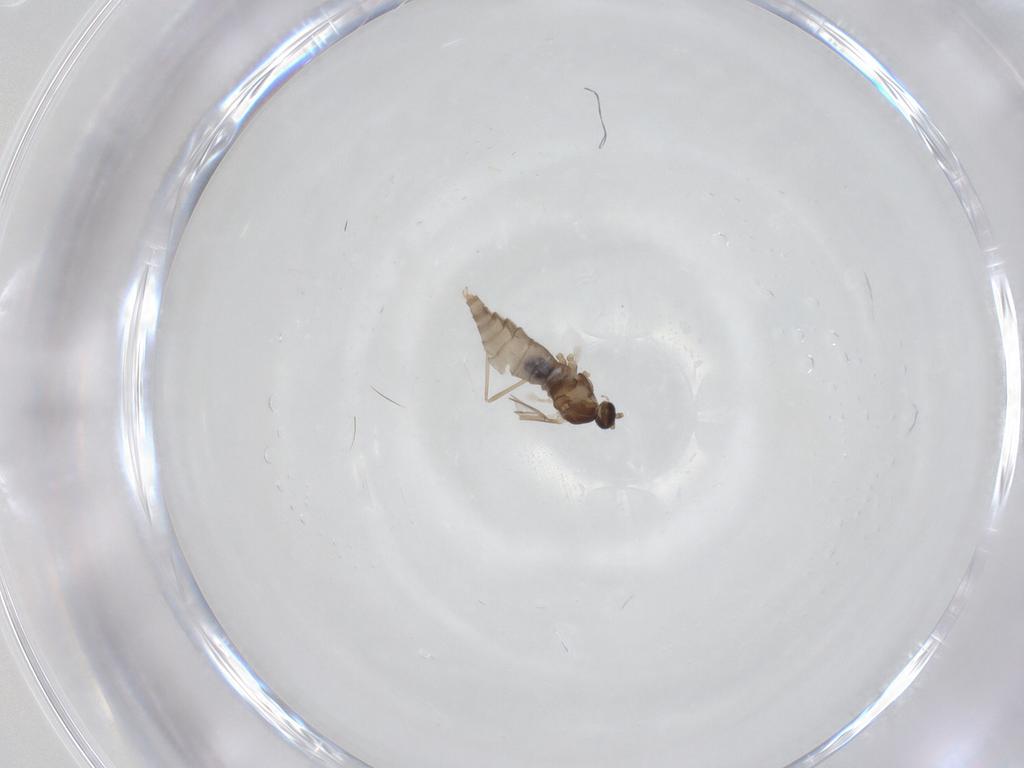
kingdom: Animalia
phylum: Arthropoda
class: Insecta
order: Diptera
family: Cecidomyiidae
